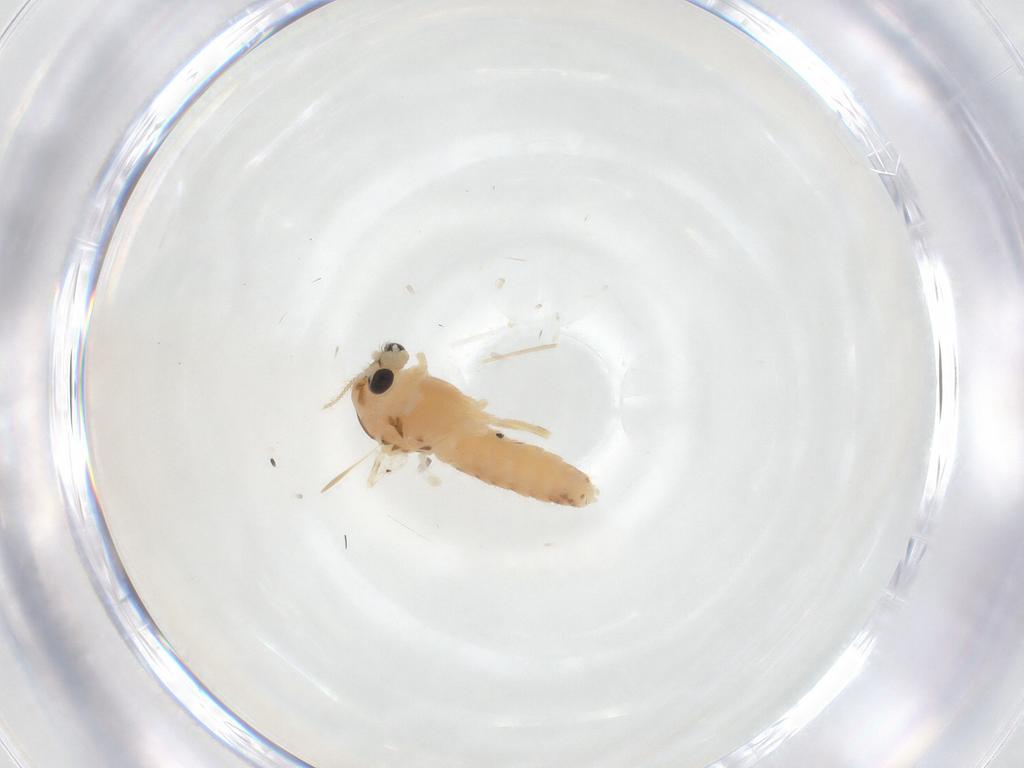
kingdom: Animalia
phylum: Arthropoda
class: Insecta
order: Diptera
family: Chironomidae
